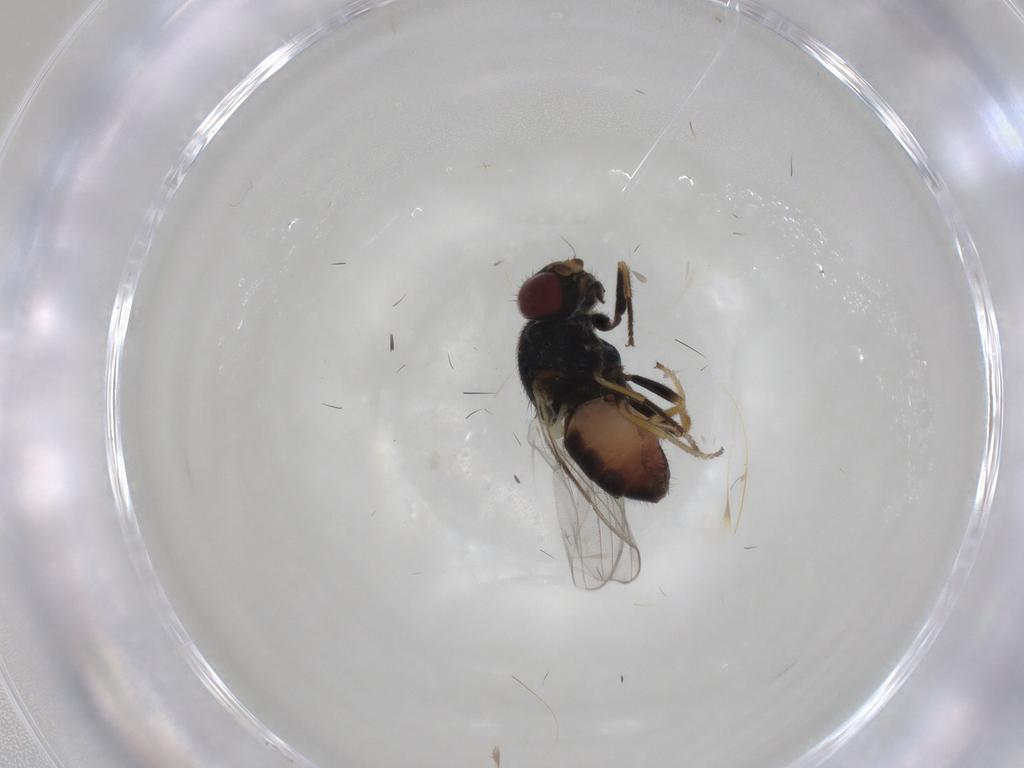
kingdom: Animalia
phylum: Arthropoda
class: Insecta
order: Diptera
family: Chloropidae
